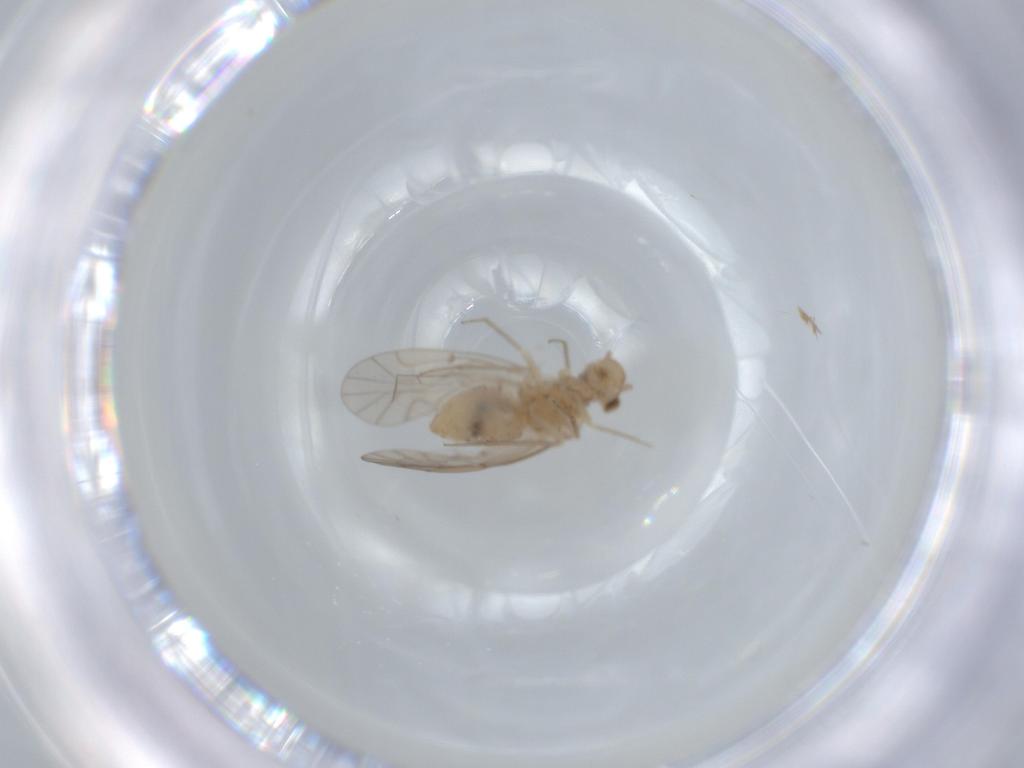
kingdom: Animalia
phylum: Arthropoda
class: Insecta
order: Psocodea
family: Lachesillidae
